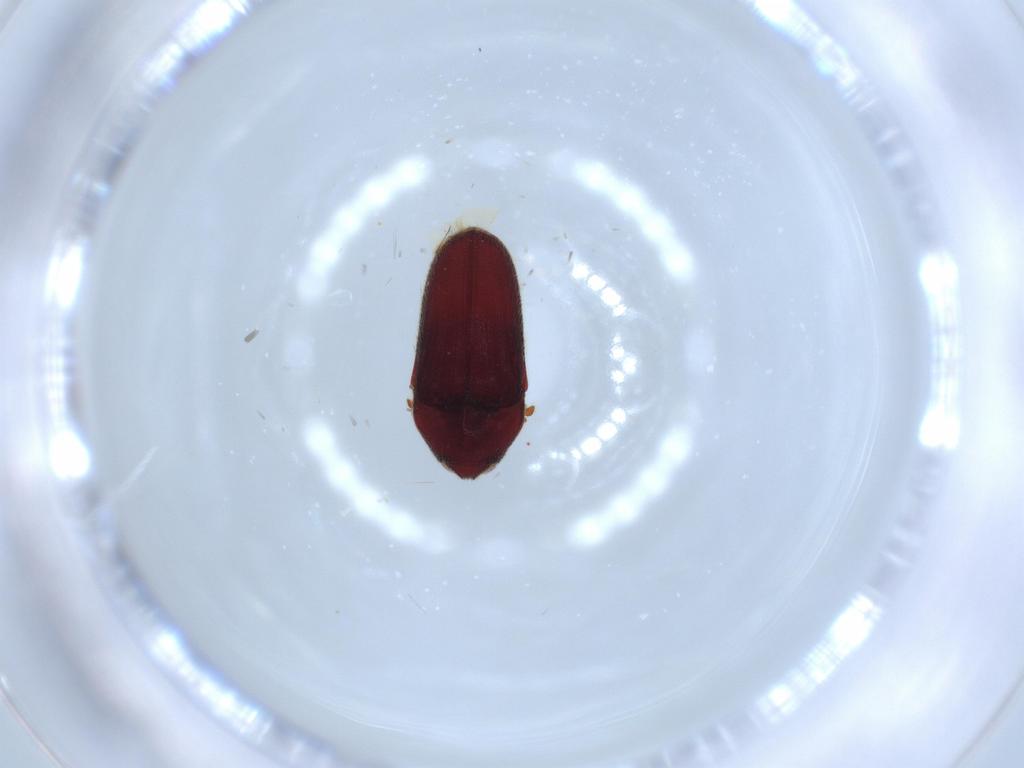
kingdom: Animalia
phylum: Arthropoda
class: Insecta
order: Coleoptera
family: Throscidae
